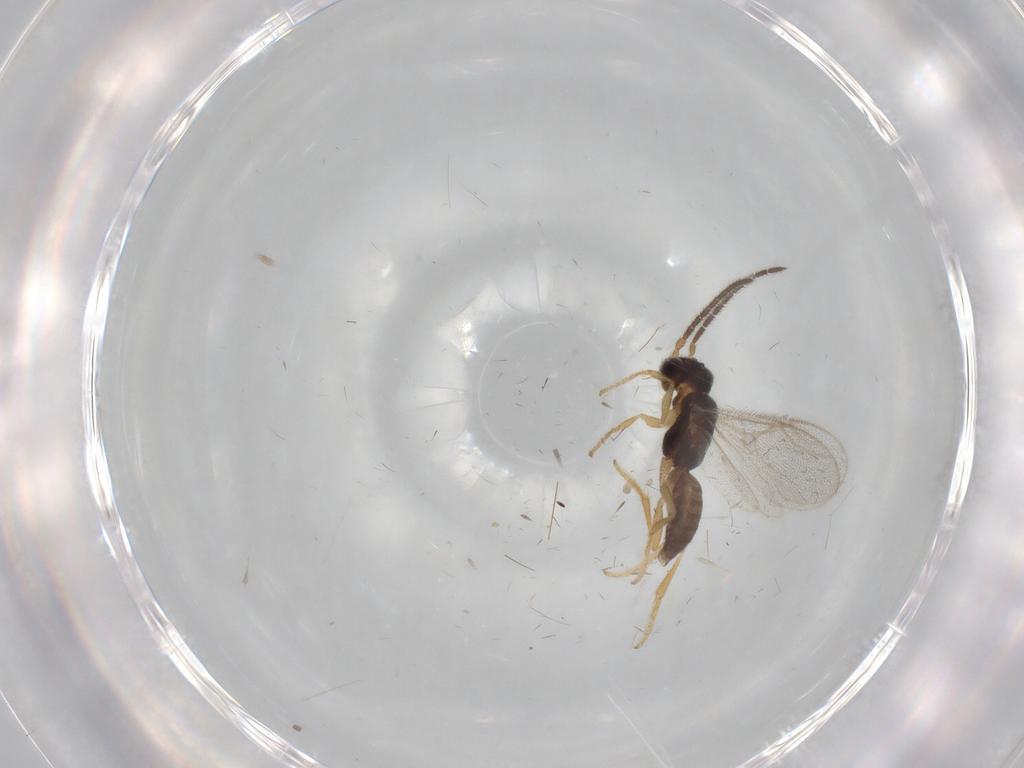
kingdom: Animalia
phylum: Arthropoda
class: Insecta
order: Hymenoptera
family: Dryinidae
